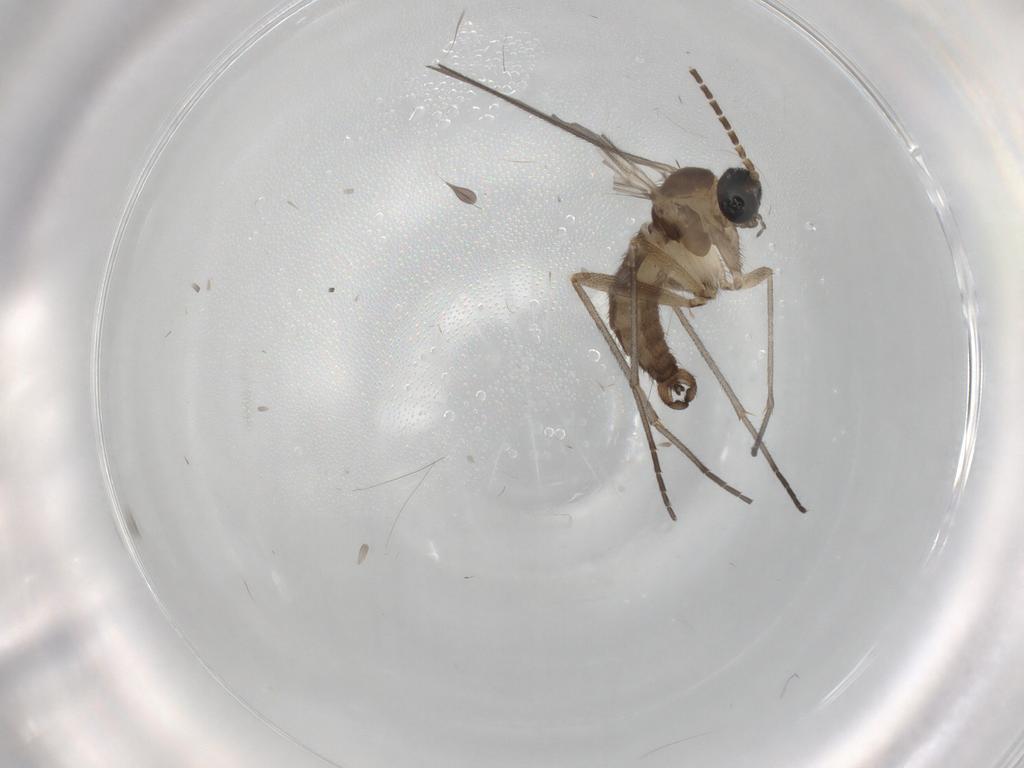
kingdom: Animalia
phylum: Arthropoda
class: Insecta
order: Diptera
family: Sciaridae
